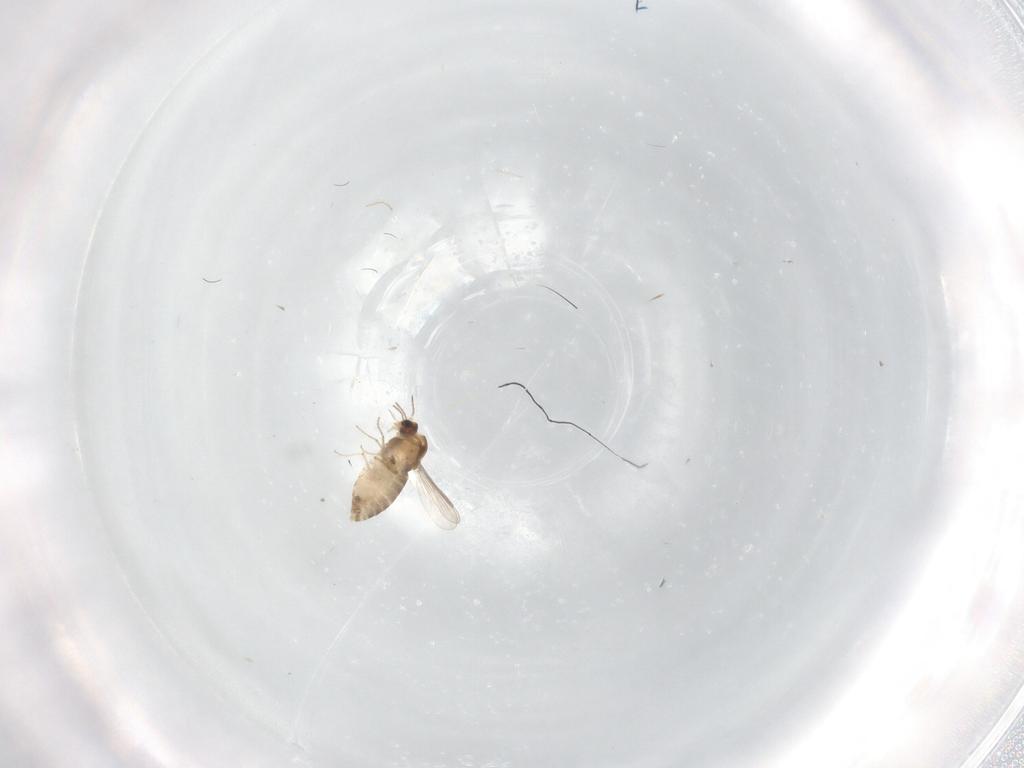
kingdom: Animalia
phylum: Arthropoda
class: Insecta
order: Diptera
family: Chironomidae
